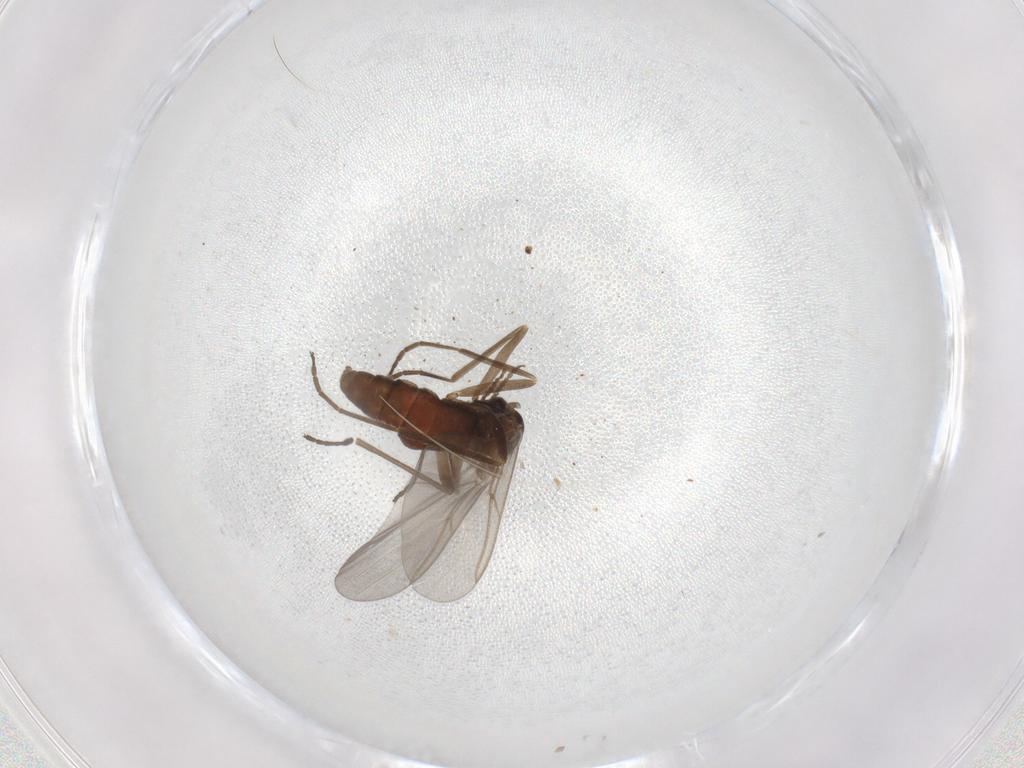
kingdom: Animalia
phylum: Arthropoda
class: Insecta
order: Diptera
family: Cecidomyiidae
